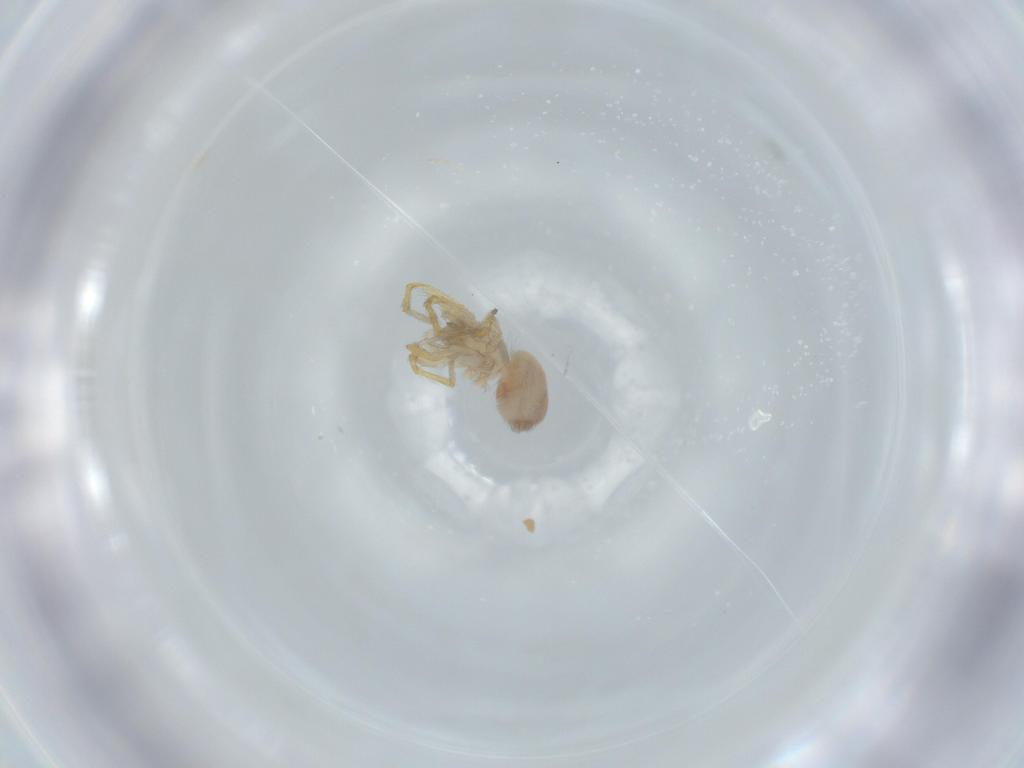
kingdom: Animalia
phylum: Arthropoda
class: Arachnida
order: Araneae
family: Oonopidae
